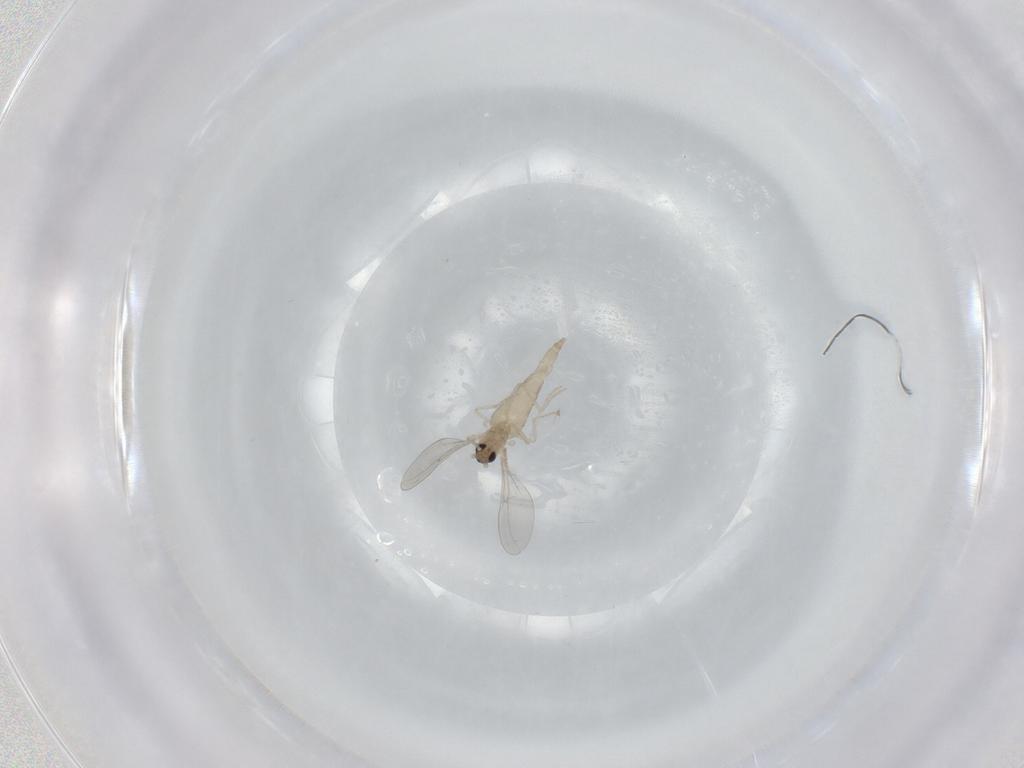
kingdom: Animalia
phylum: Arthropoda
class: Insecta
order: Diptera
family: Cecidomyiidae
